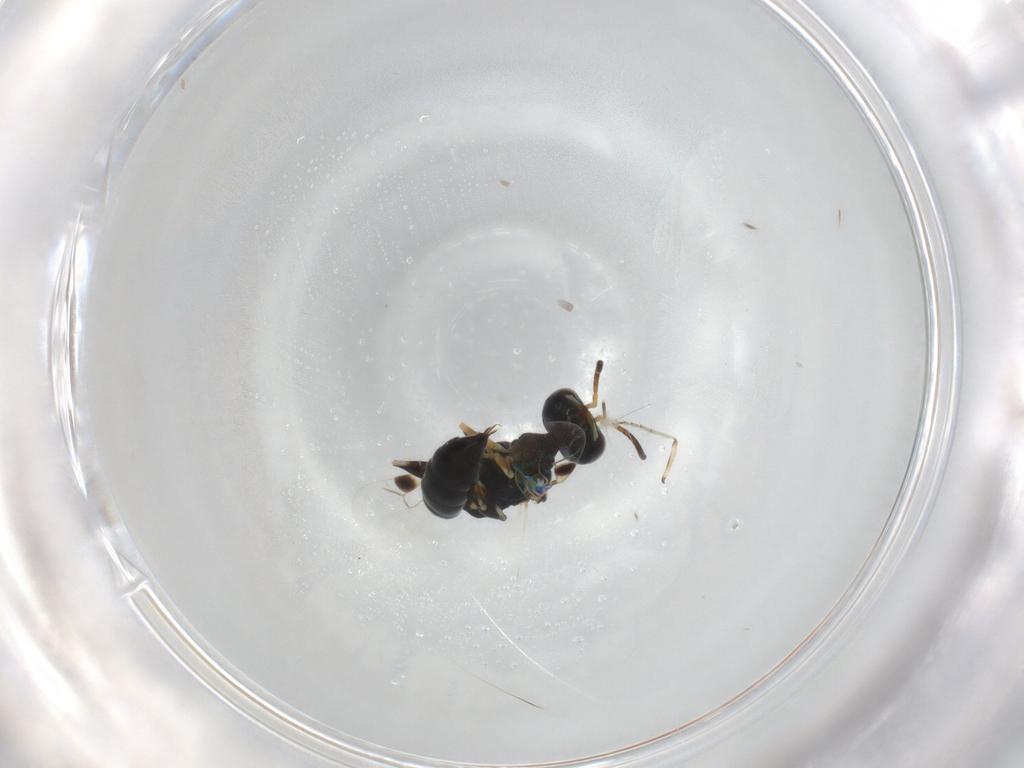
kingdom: Animalia
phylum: Arthropoda
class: Insecta
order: Hymenoptera
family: Pemphredonidae
